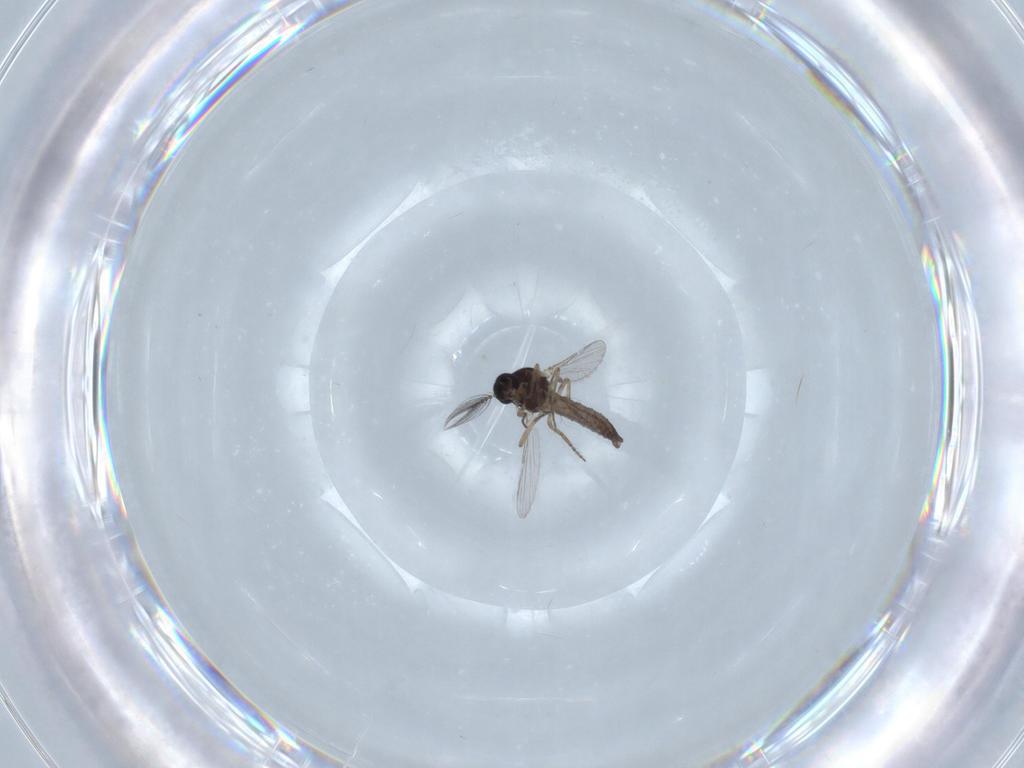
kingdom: Animalia
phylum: Arthropoda
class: Insecta
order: Diptera
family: Ceratopogonidae
